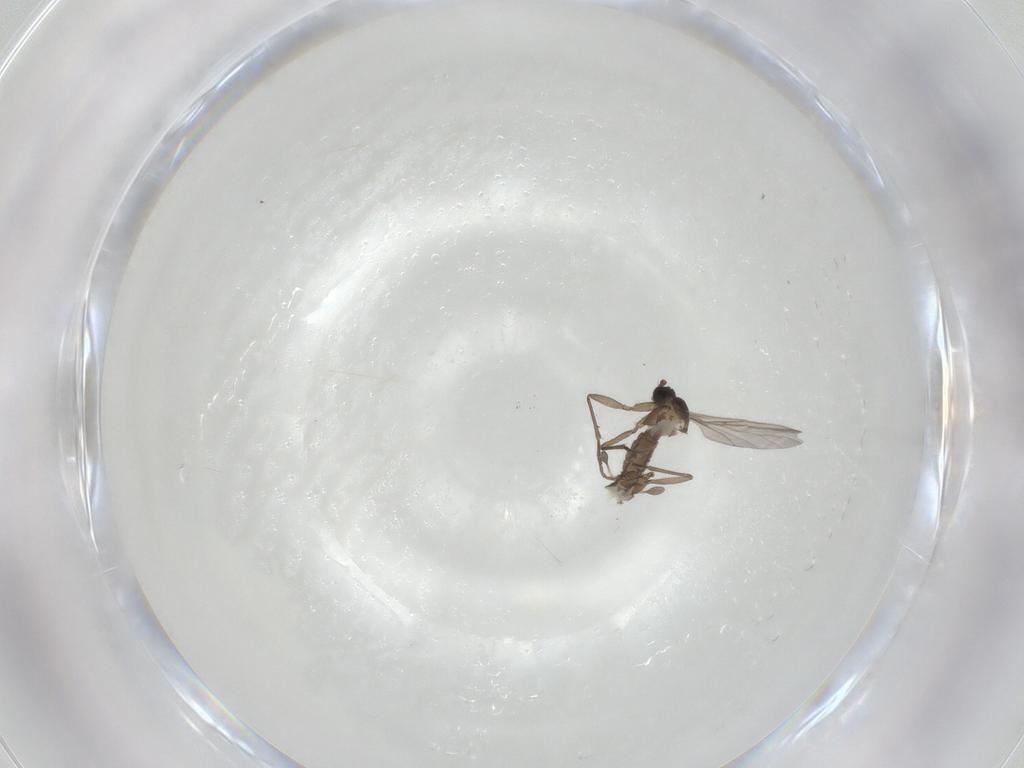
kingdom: Animalia
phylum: Arthropoda
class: Insecta
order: Diptera
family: Sciaridae
